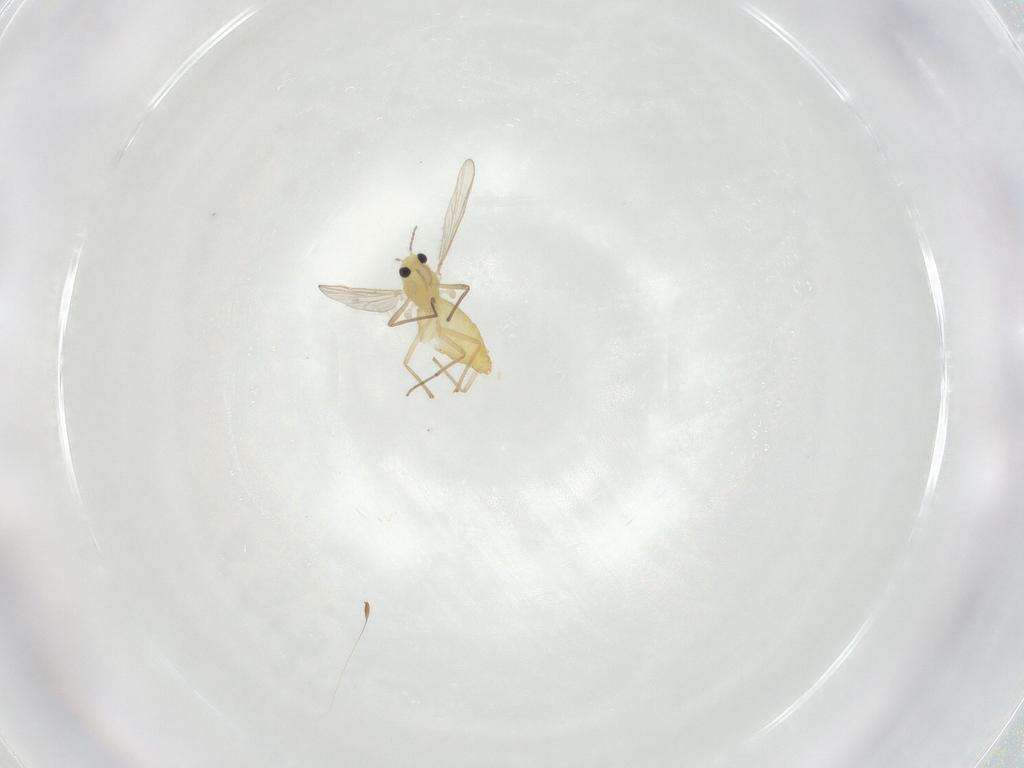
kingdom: Animalia
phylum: Arthropoda
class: Insecta
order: Diptera
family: Chironomidae
